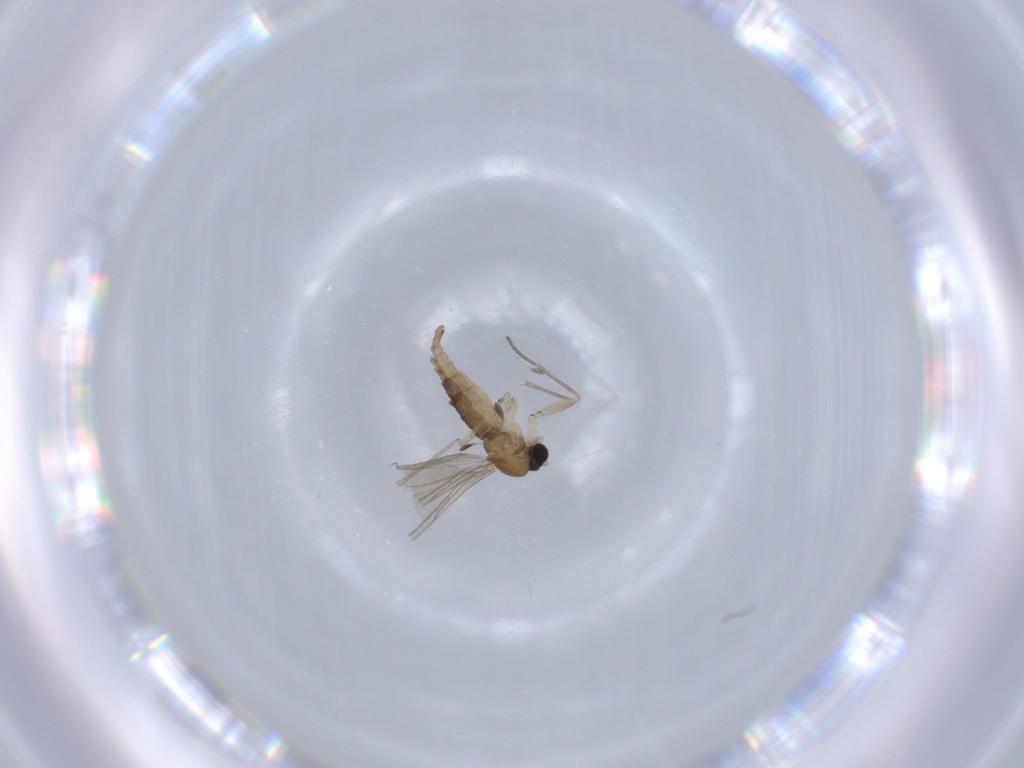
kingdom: Animalia
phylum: Arthropoda
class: Insecta
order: Diptera
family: Sciaridae
